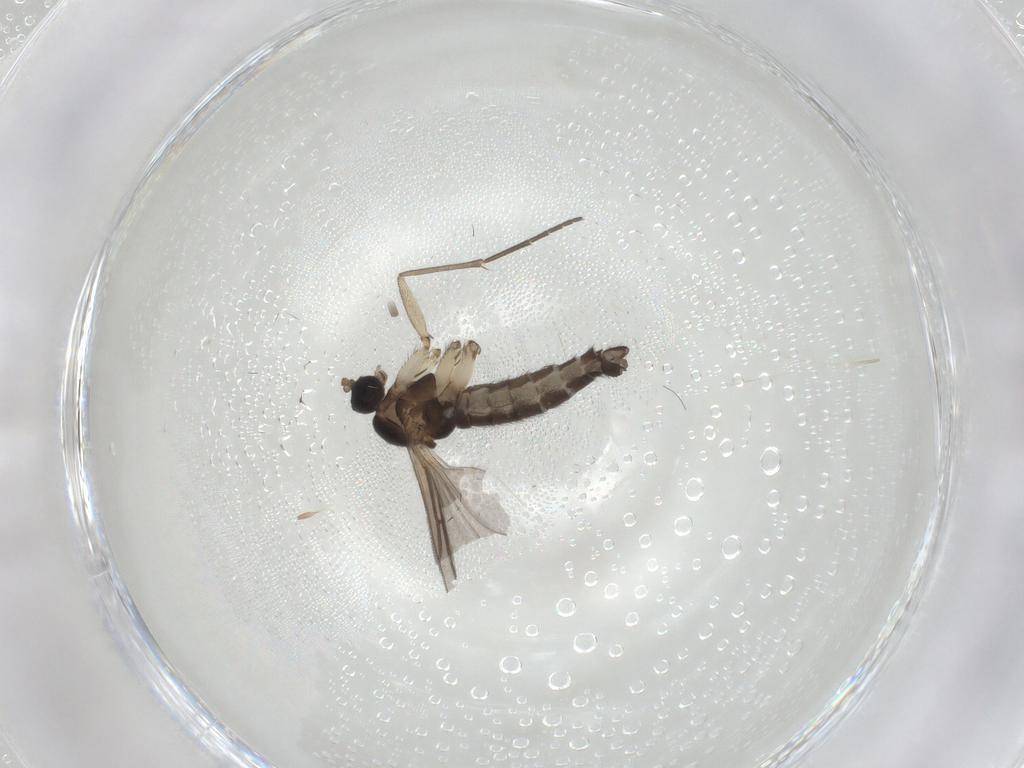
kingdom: Animalia
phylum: Arthropoda
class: Insecta
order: Diptera
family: Sciaridae
